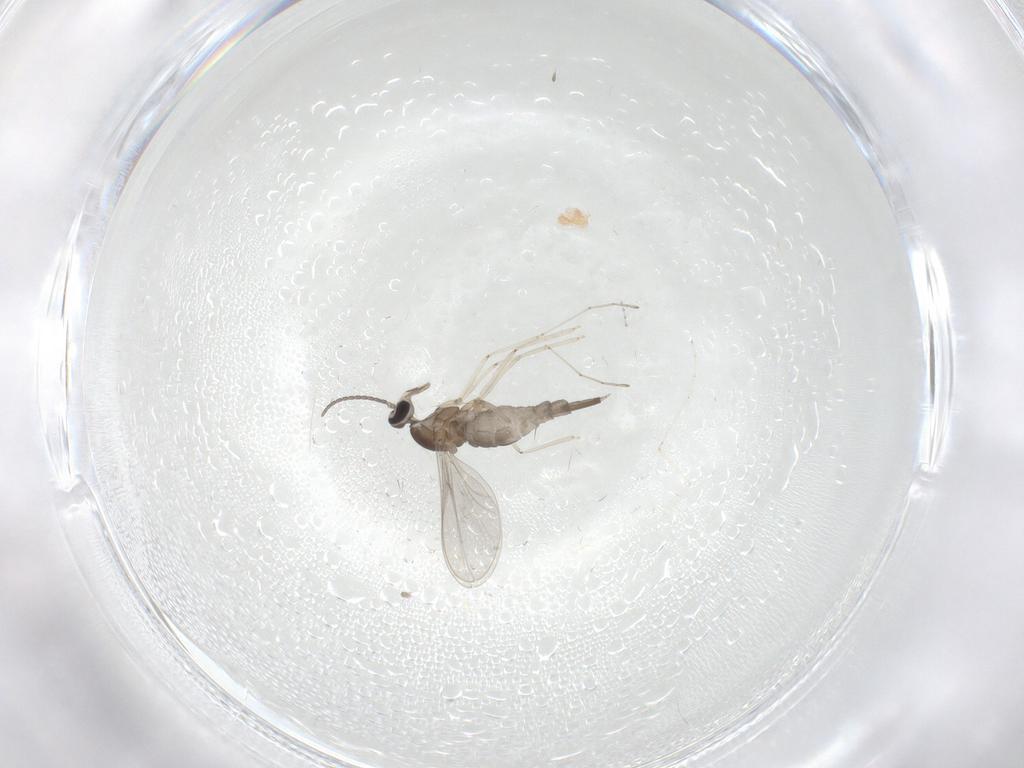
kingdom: Animalia
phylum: Arthropoda
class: Insecta
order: Diptera
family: Cecidomyiidae
